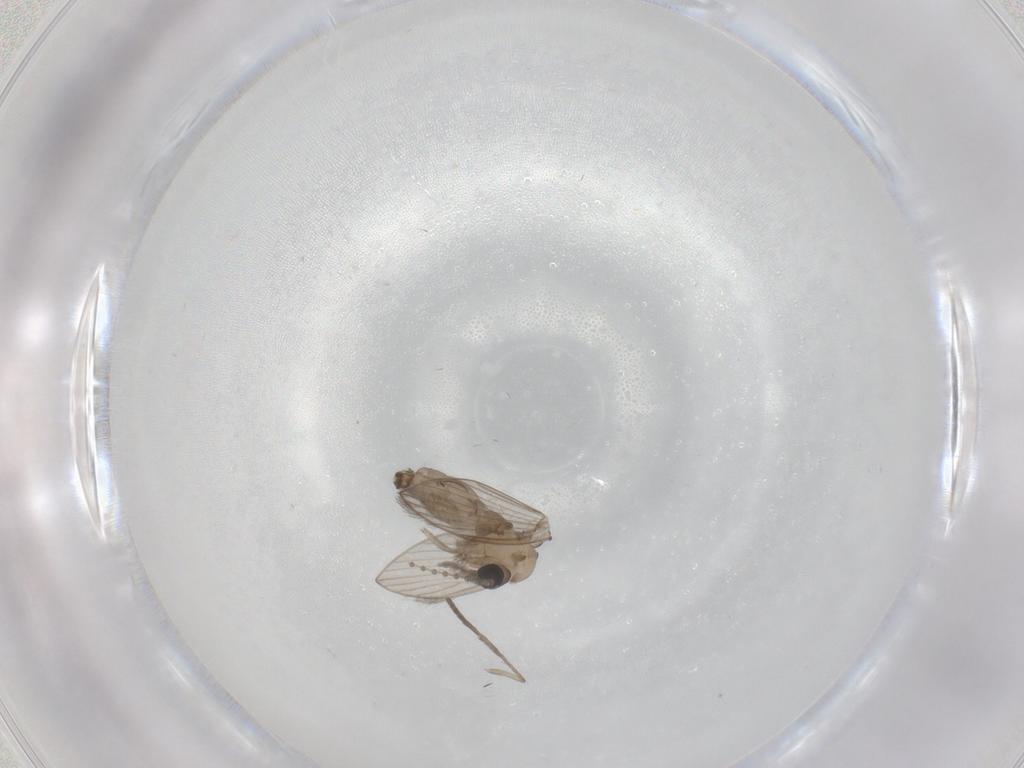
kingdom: Animalia
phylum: Arthropoda
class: Insecta
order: Diptera
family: Psychodidae
